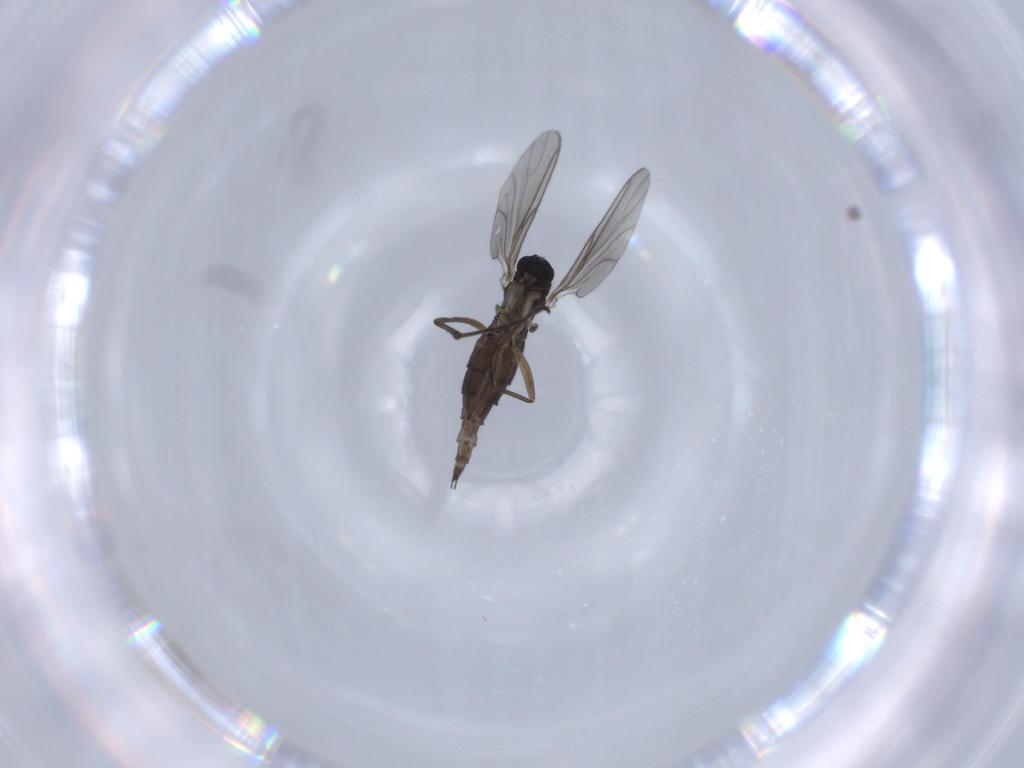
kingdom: Animalia
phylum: Arthropoda
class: Insecta
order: Diptera
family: Sciaridae
